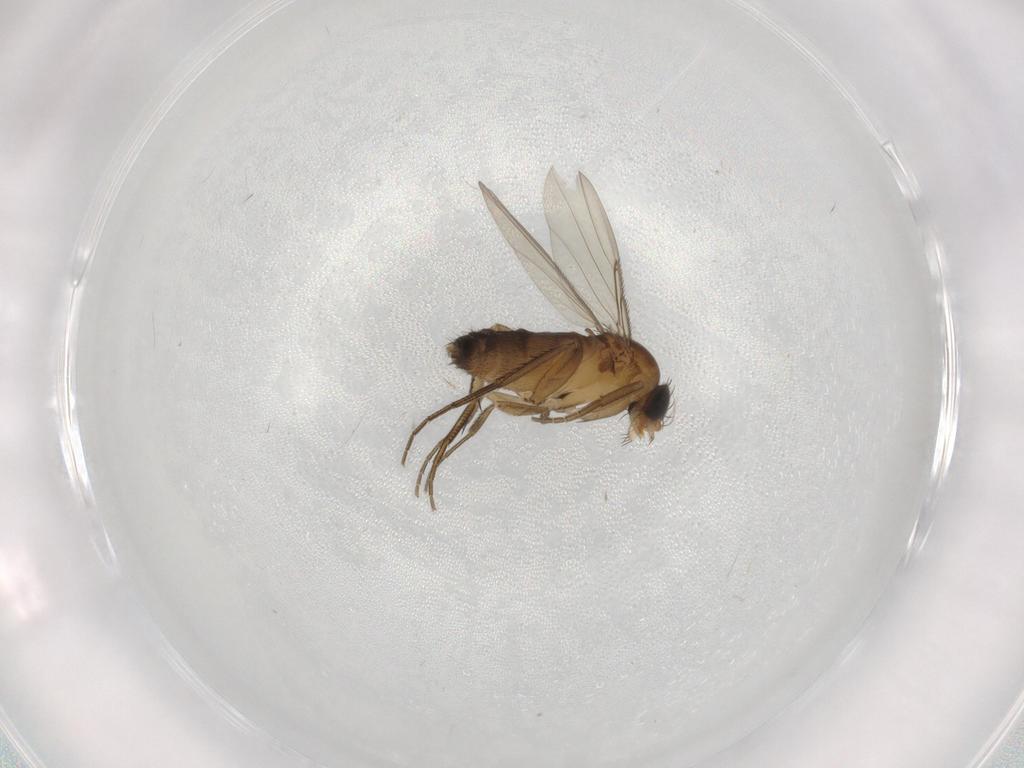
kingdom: Animalia
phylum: Arthropoda
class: Insecta
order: Diptera
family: Phoridae
